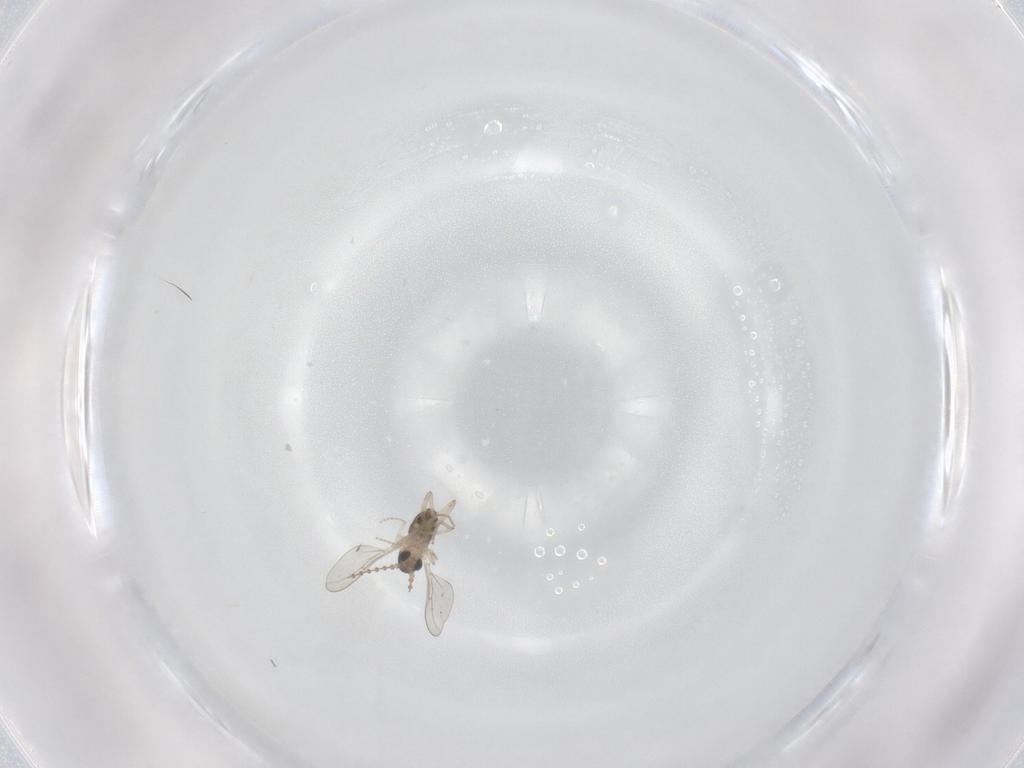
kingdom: Animalia
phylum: Arthropoda
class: Insecta
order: Diptera
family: Cecidomyiidae
